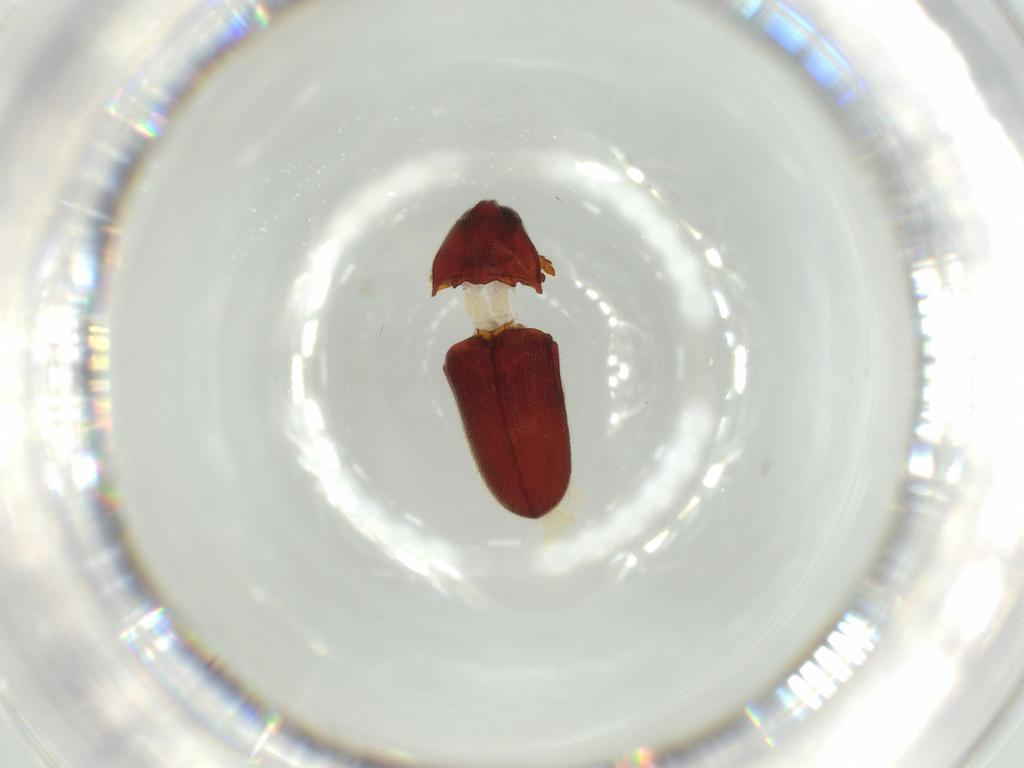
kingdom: Animalia
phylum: Arthropoda
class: Insecta
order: Coleoptera
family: Throscidae
